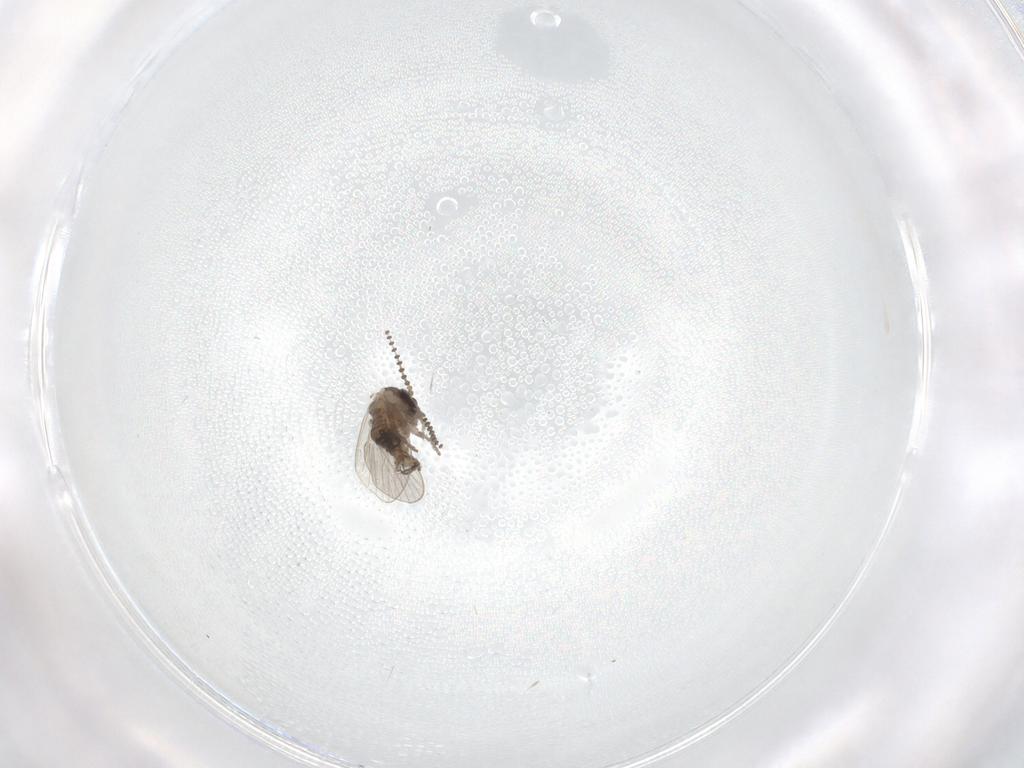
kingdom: Animalia
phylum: Arthropoda
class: Insecta
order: Diptera
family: Psychodidae
